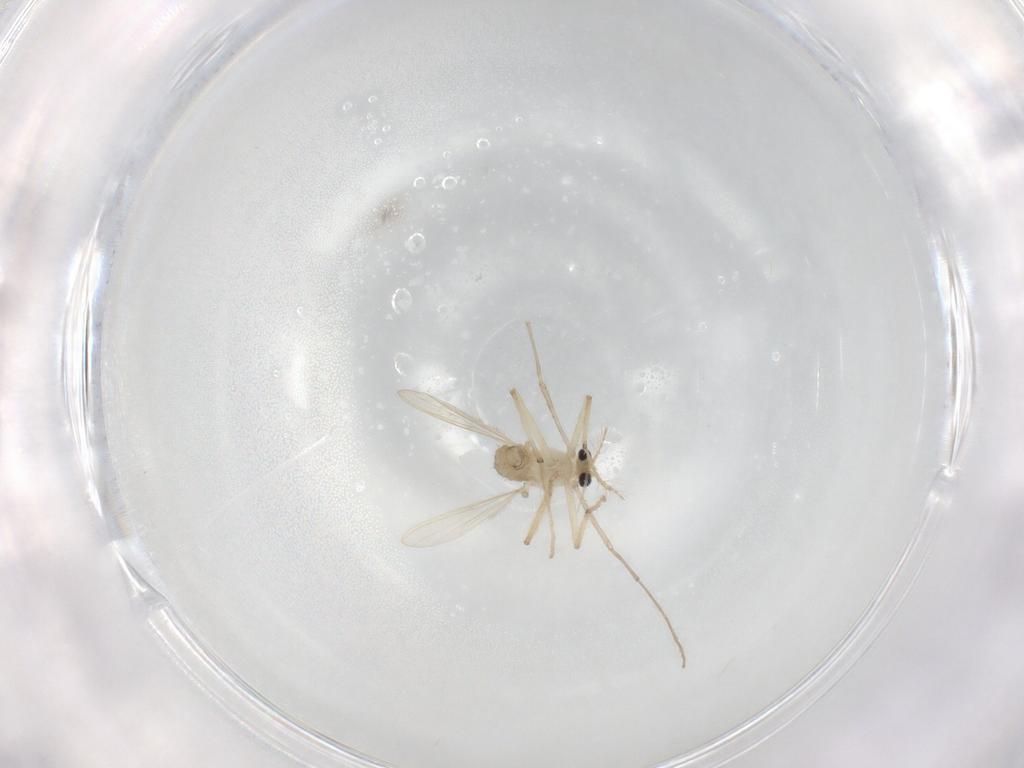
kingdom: Animalia
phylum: Arthropoda
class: Insecta
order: Diptera
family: Chironomidae
